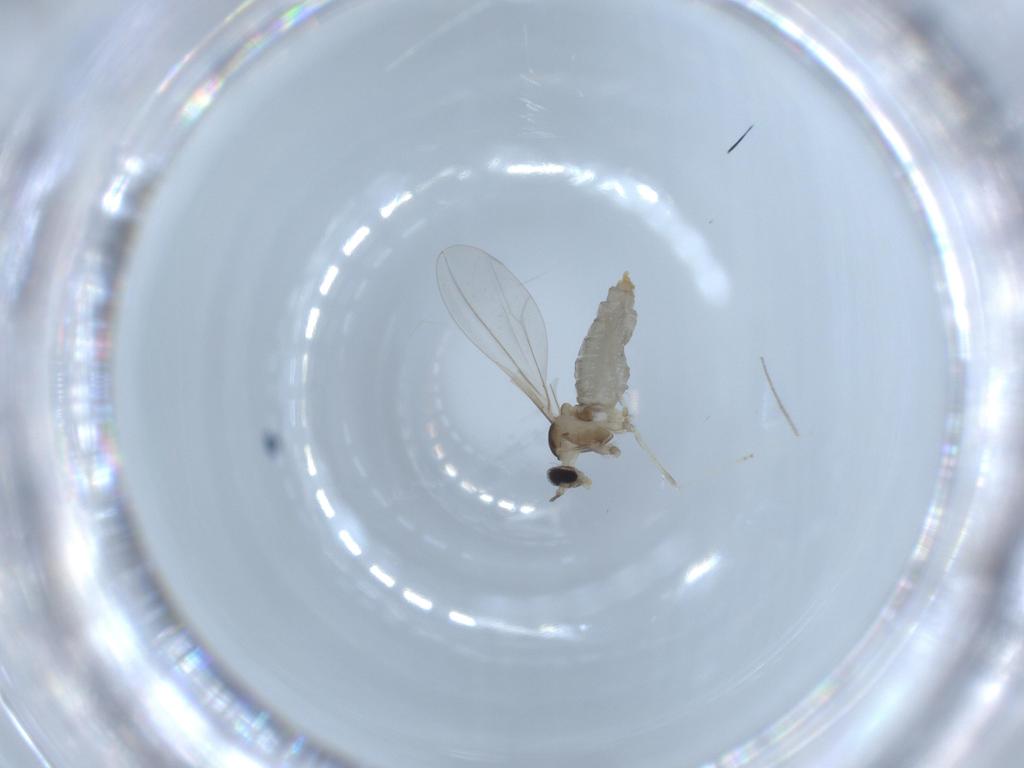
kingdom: Animalia
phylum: Arthropoda
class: Insecta
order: Diptera
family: Cecidomyiidae
